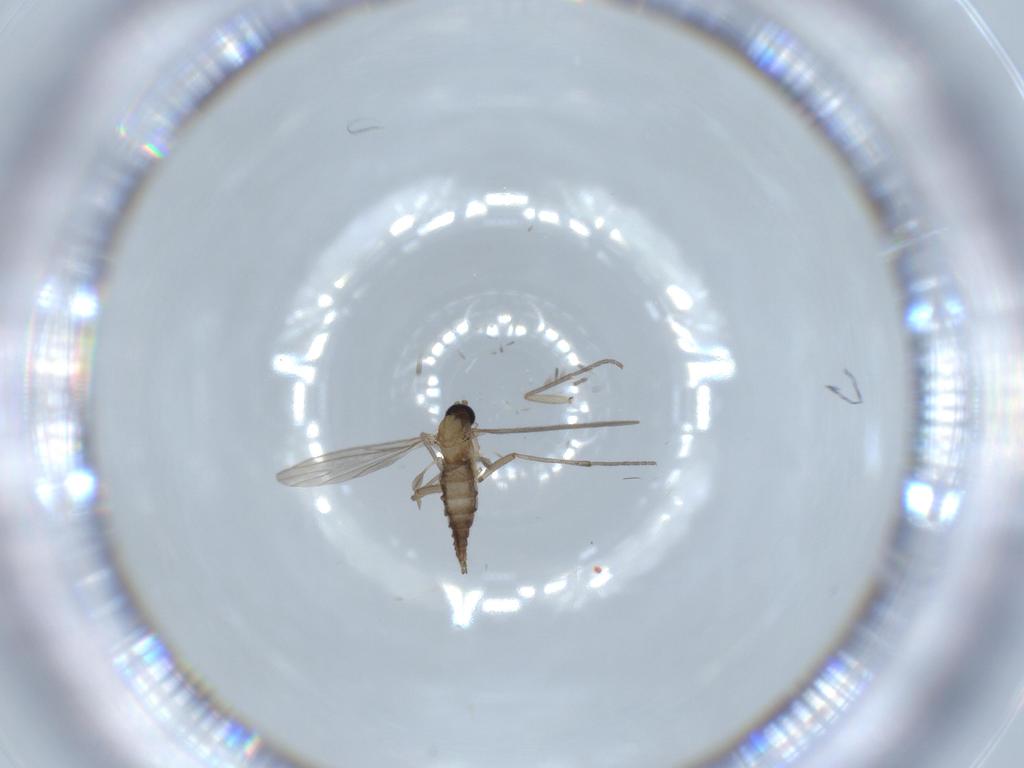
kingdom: Animalia
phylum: Arthropoda
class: Insecta
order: Diptera
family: Sciaridae
